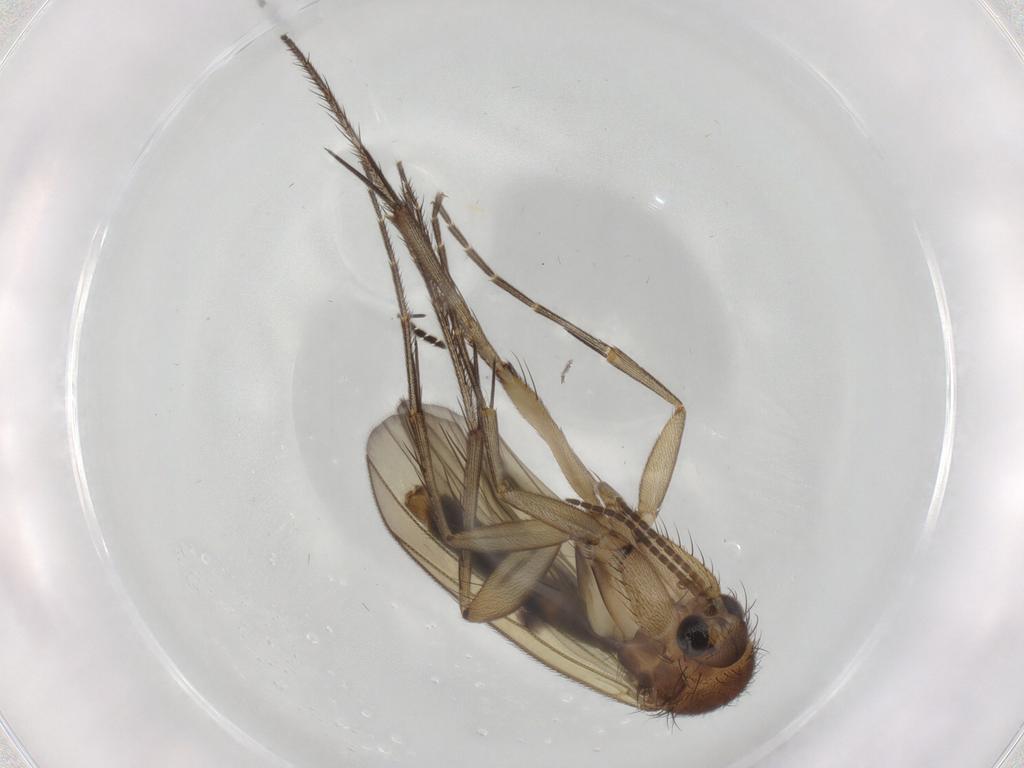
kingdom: Animalia
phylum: Arthropoda
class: Insecta
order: Diptera
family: Mycetophilidae
